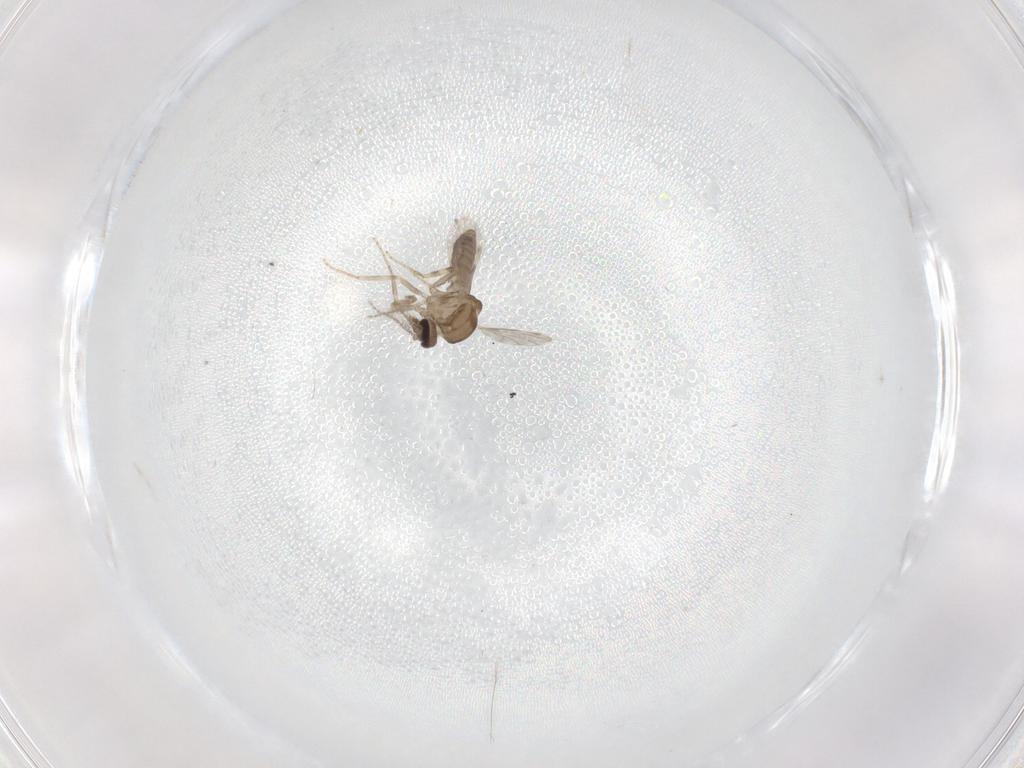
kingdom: Animalia
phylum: Arthropoda
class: Insecta
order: Diptera
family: Ceratopogonidae
